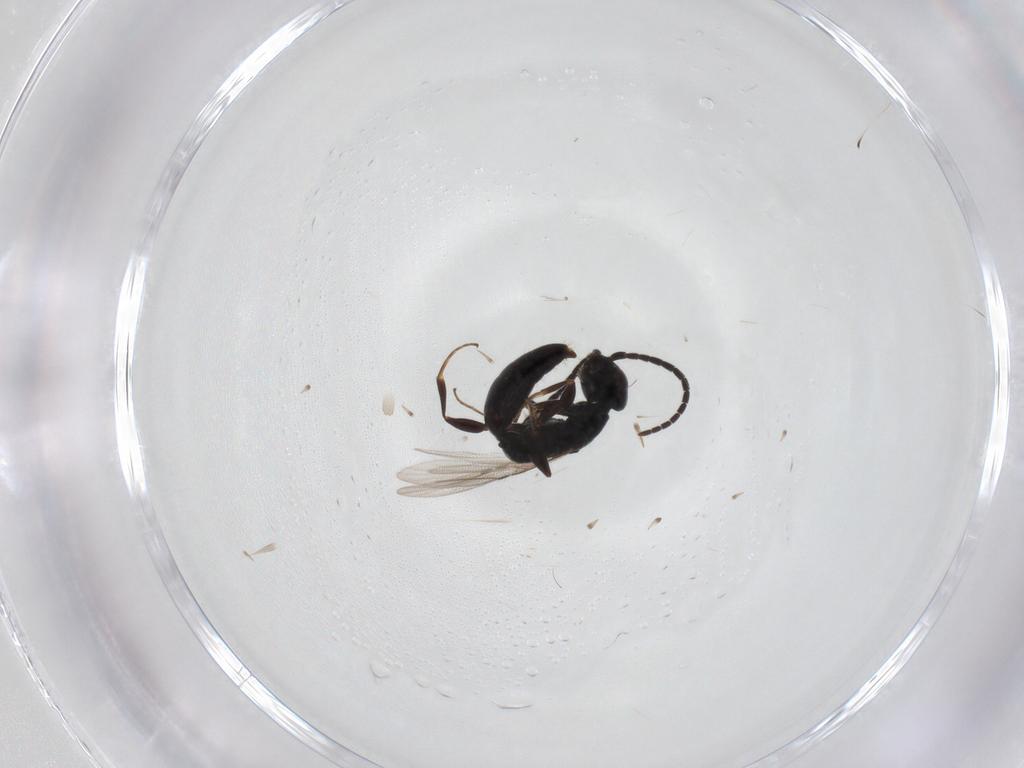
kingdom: Animalia
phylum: Arthropoda
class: Insecta
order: Hymenoptera
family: Bethylidae
